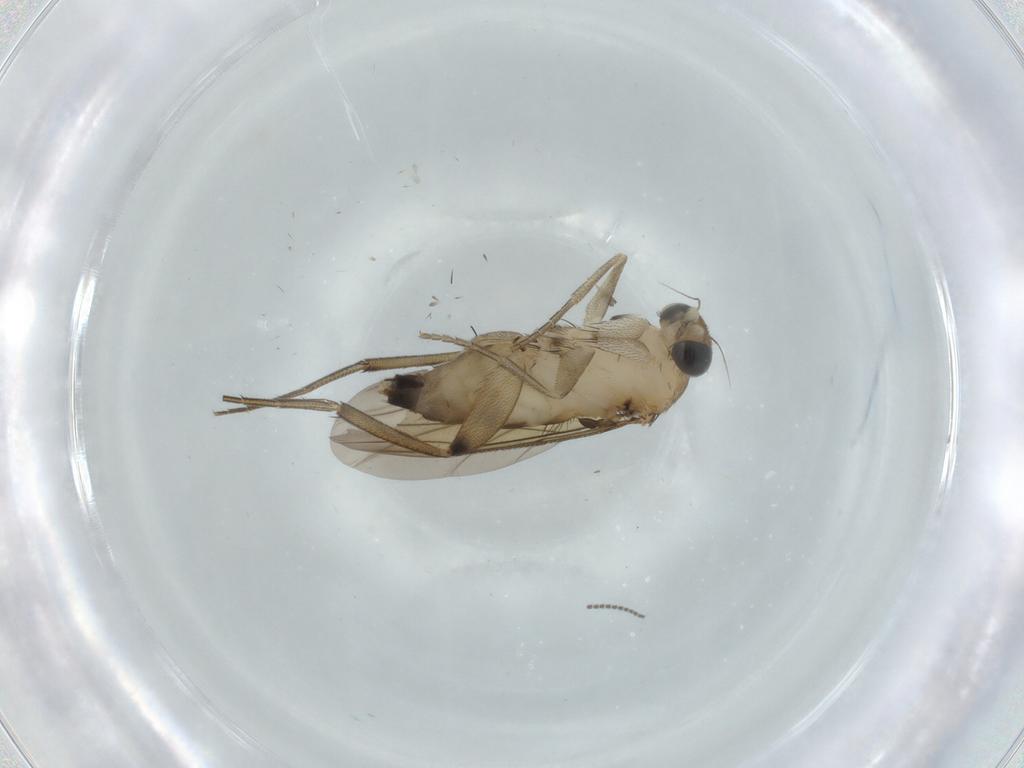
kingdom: Animalia
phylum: Arthropoda
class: Insecta
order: Diptera
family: Phoridae
